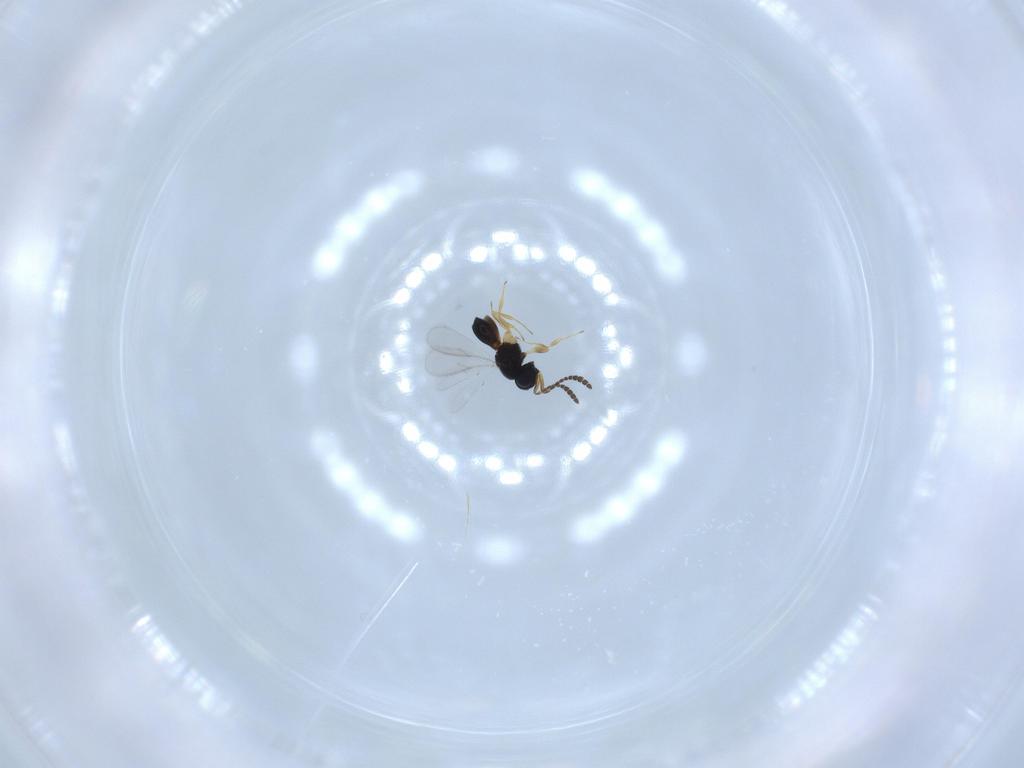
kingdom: Animalia
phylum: Arthropoda
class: Insecta
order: Hymenoptera
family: Scelionidae
